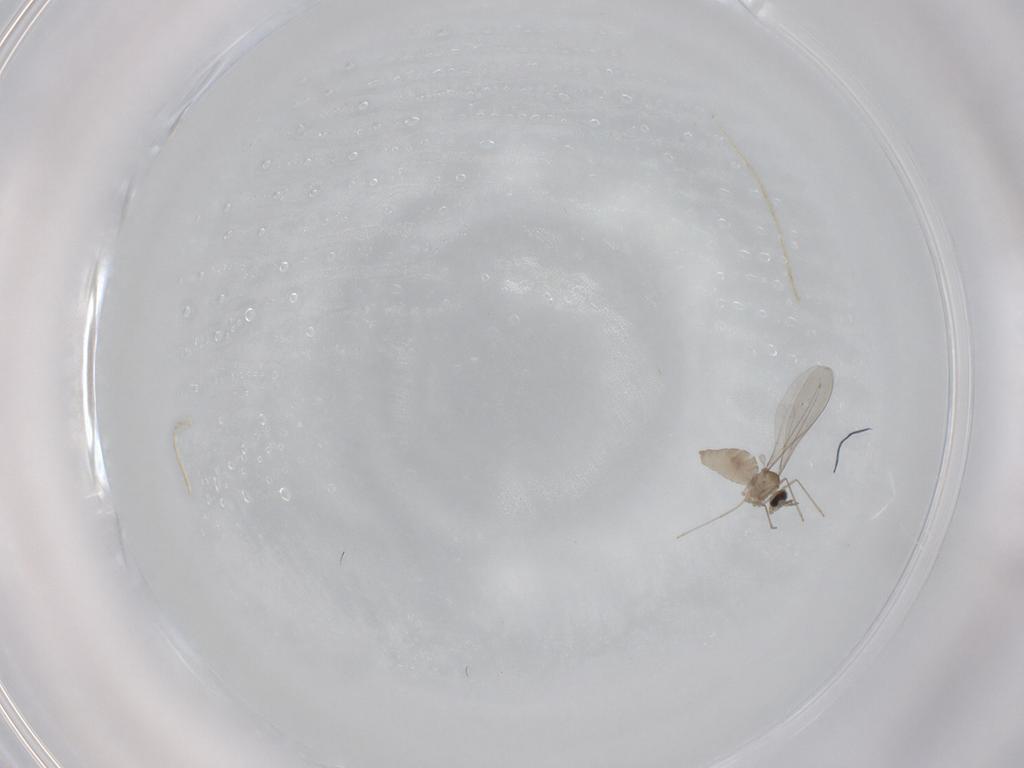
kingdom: Animalia
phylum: Arthropoda
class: Insecta
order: Diptera
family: Cecidomyiidae
